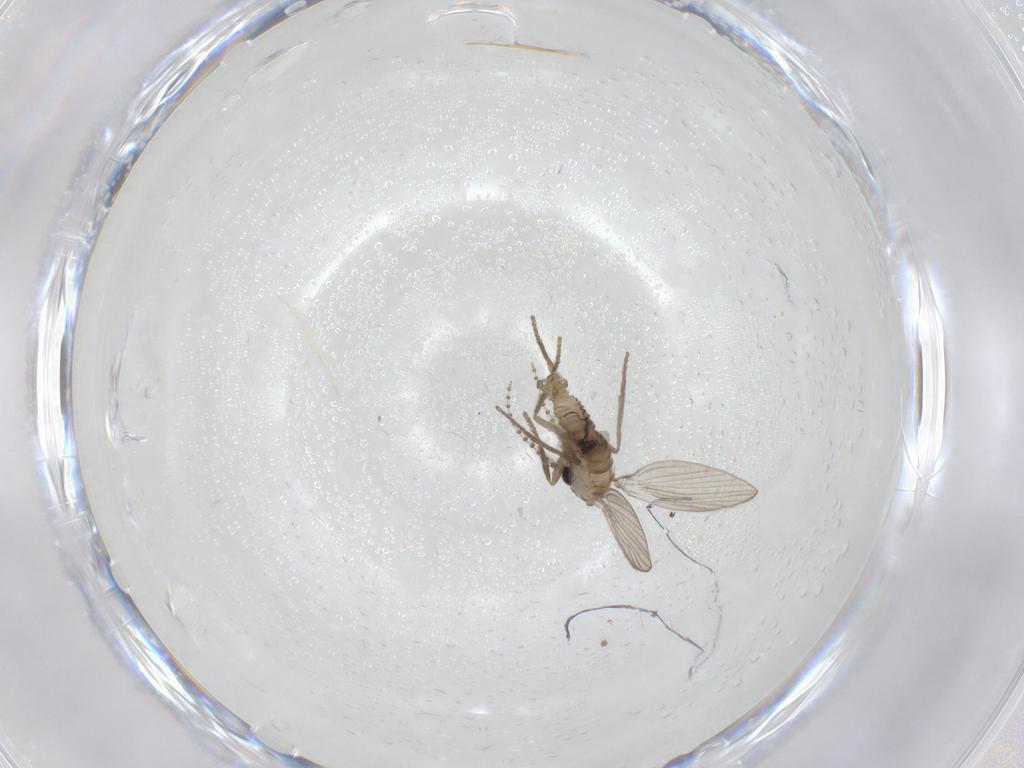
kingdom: Animalia
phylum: Arthropoda
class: Insecta
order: Diptera
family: Psychodidae
